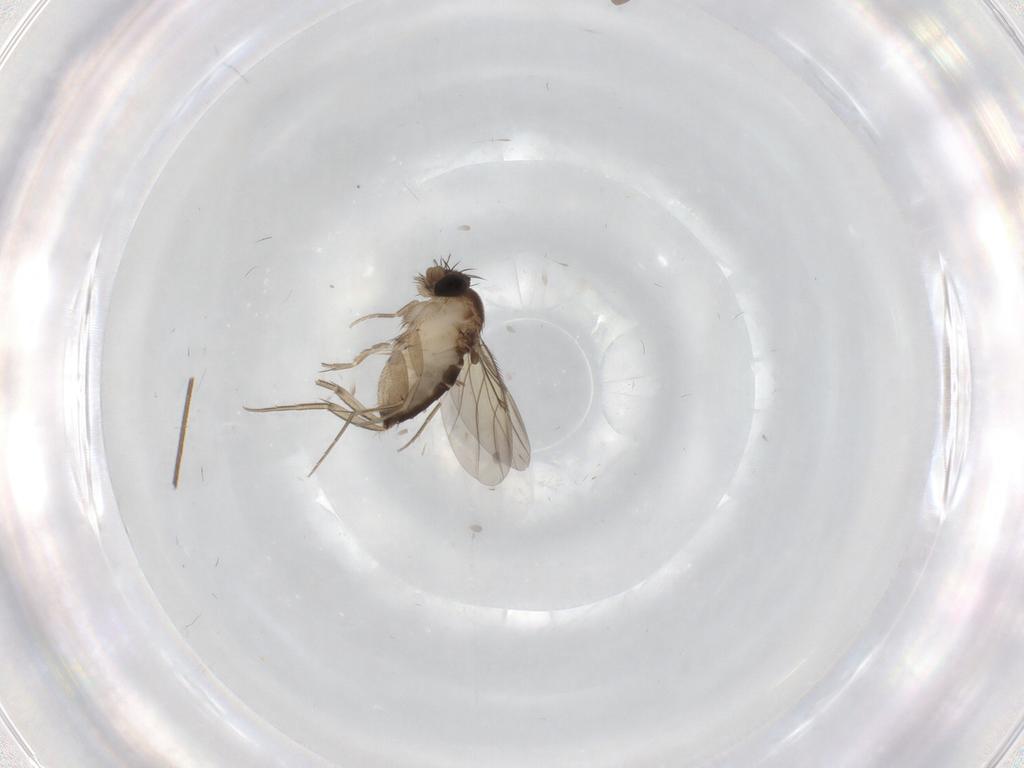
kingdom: Animalia
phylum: Arthropoda
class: Insecta
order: Diptera
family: Phoridae
